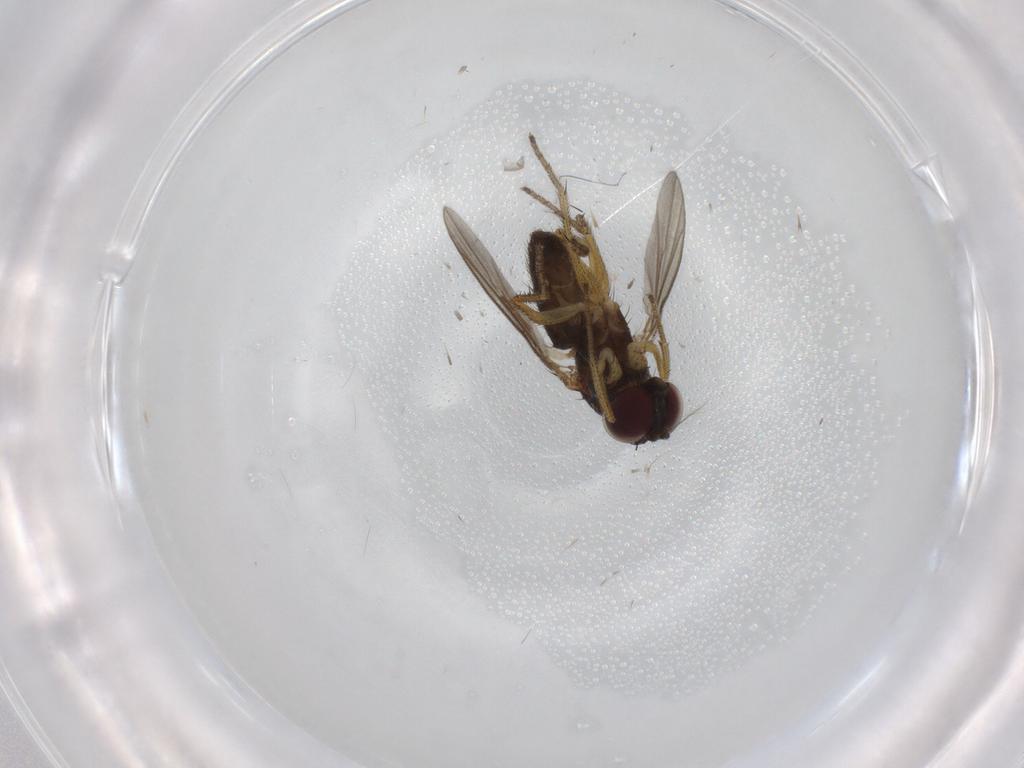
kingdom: Animalia
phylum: Arthropoda
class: Insecta
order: Diptera
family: Dolichopodidae
